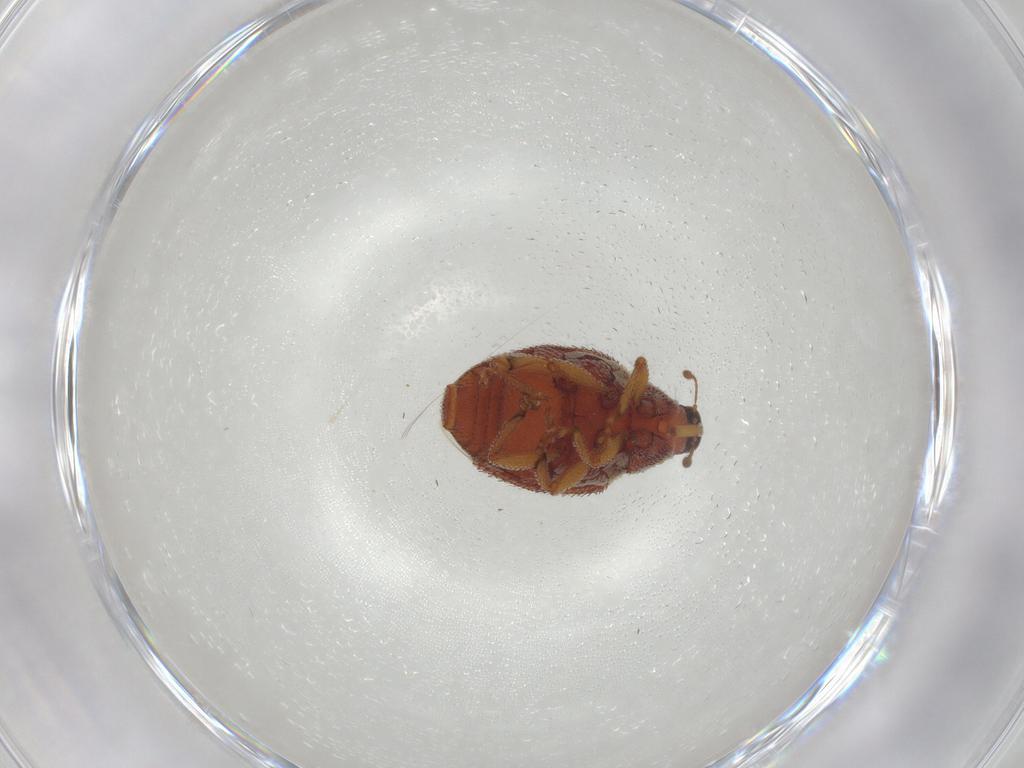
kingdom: Animalia
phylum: Arthropoda
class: Insecta
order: Coleoptera
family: Curculionidae
